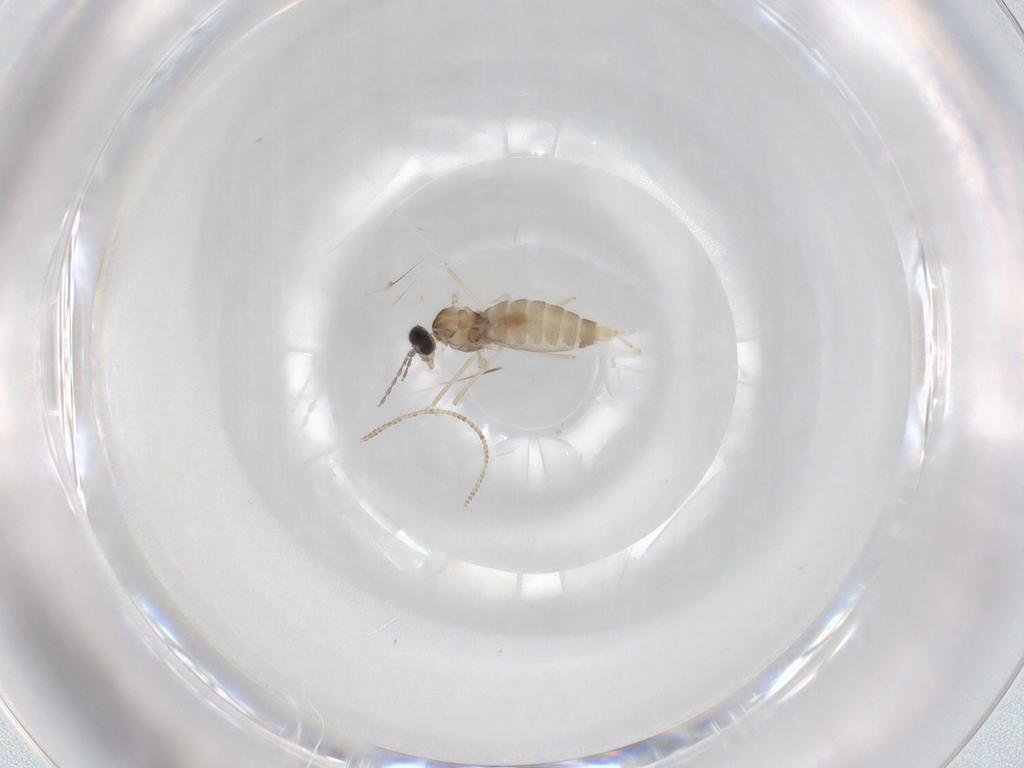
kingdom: Animalia
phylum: Arthropoda
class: Insecta
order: Diptera
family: Cecidomyiidae
